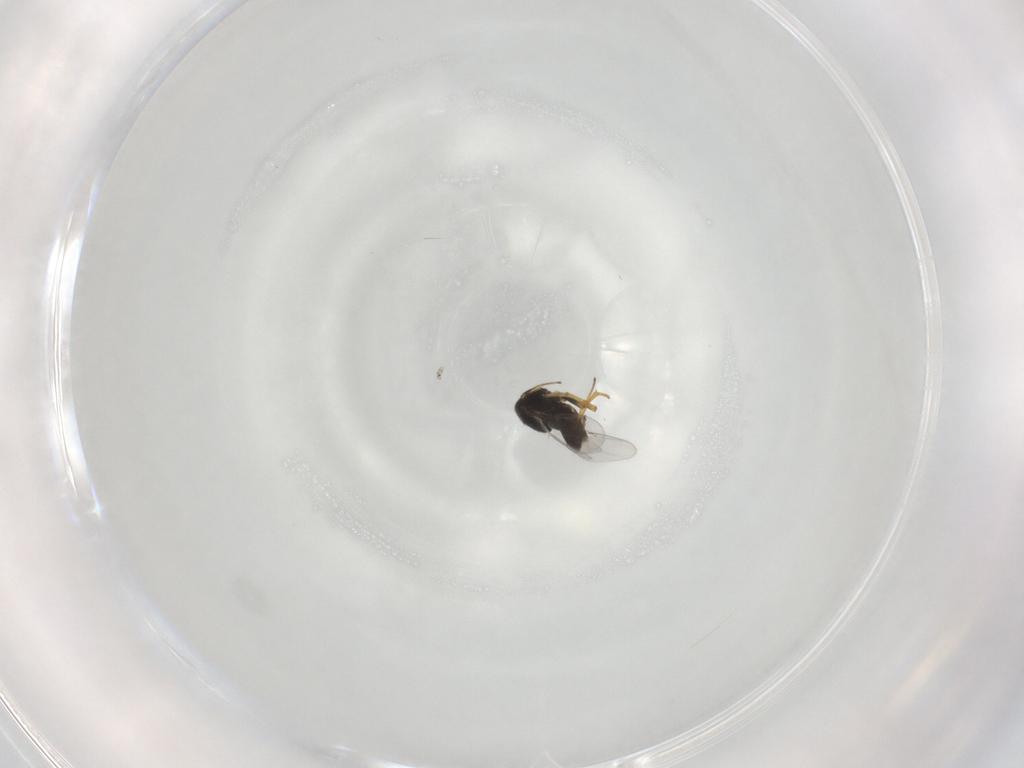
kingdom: Animalia
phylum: Arthropoda
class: Insecta
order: Hymenoptera
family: Encyrtidae
